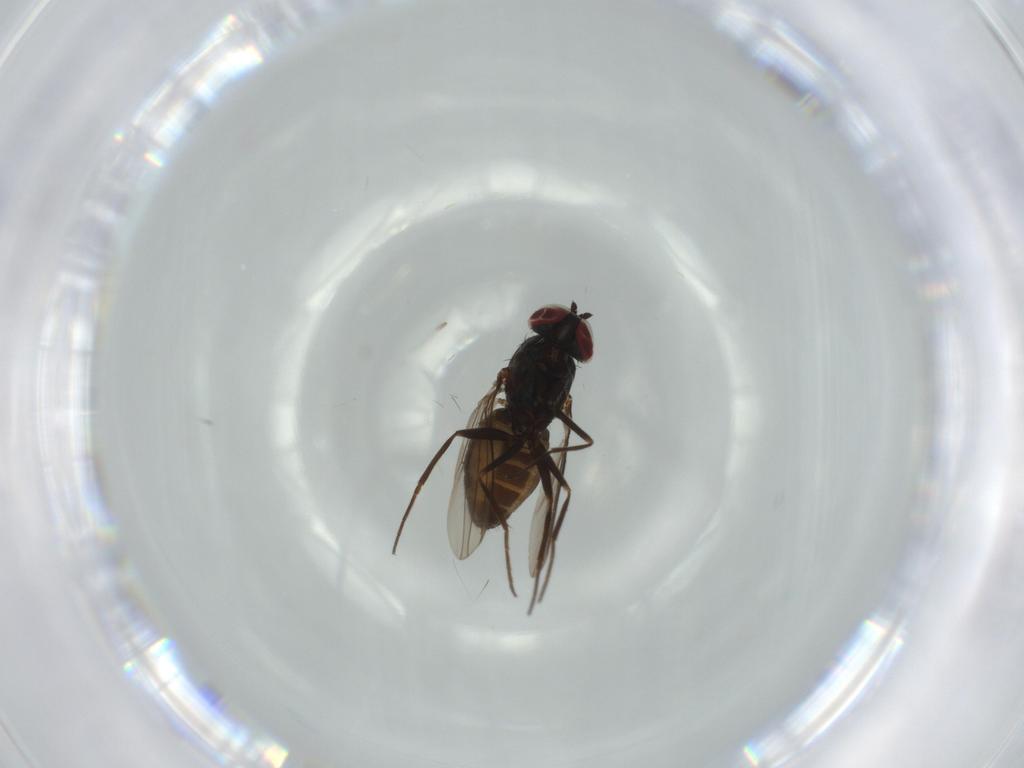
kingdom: Animalia
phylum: Arthropoda
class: Insecta
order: Diptera
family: Dolichopodidae
